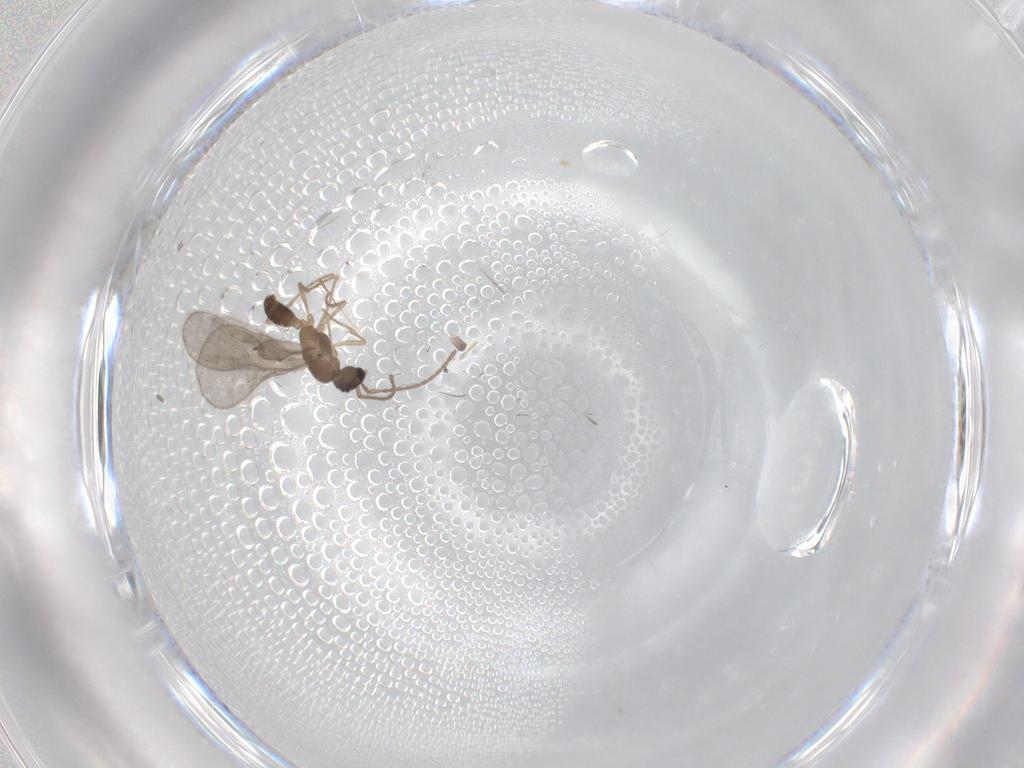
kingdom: Animalia
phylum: Arthropoda
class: Insecta
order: Hymenoptera
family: Formicidae
